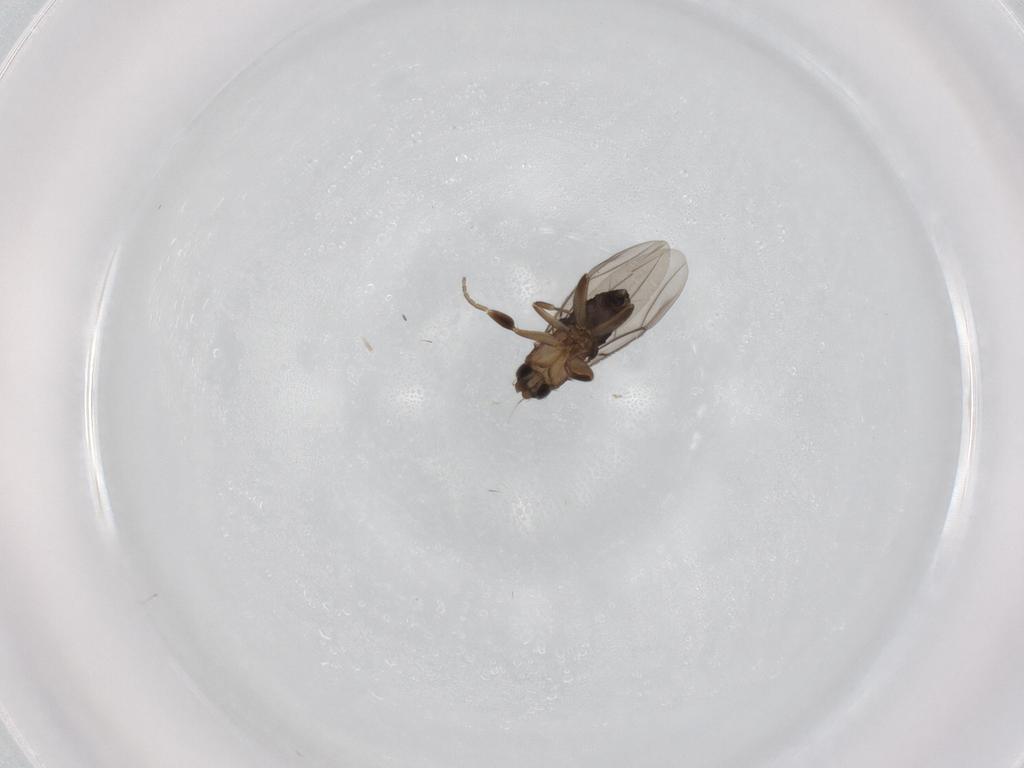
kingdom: Animalia
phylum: Arthropoda
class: Insecta
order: Diptera
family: Phoridae
